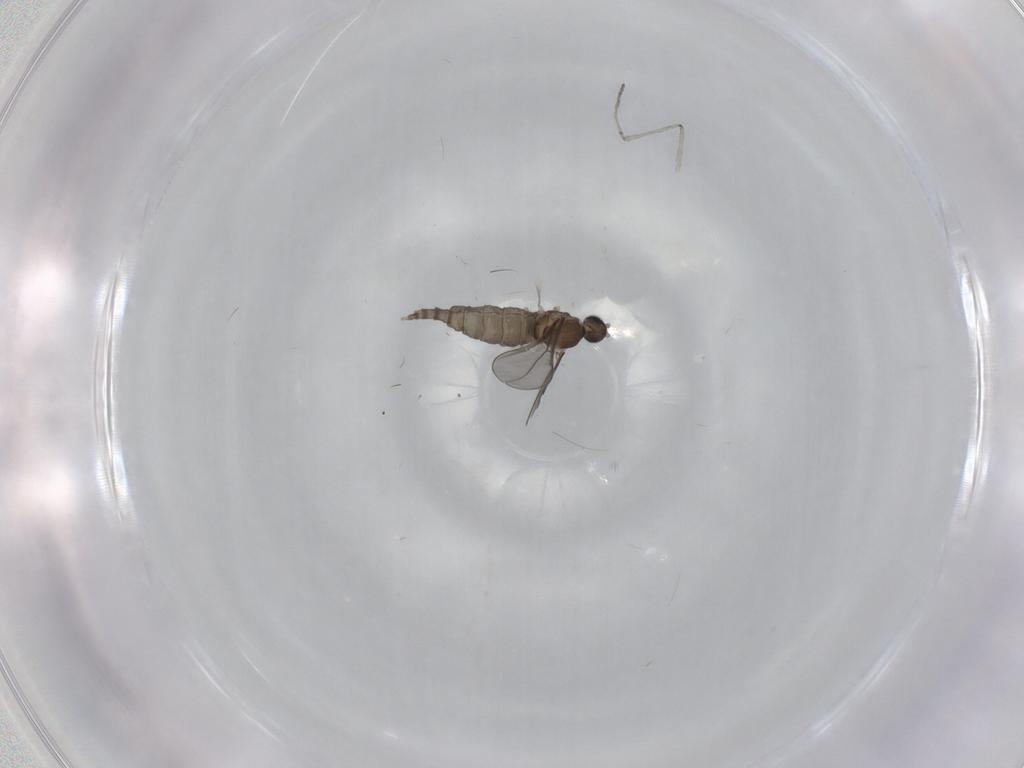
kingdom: Animalia
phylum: Arthropoda
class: Insecta
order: Diptera
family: Cecidomyiidae
